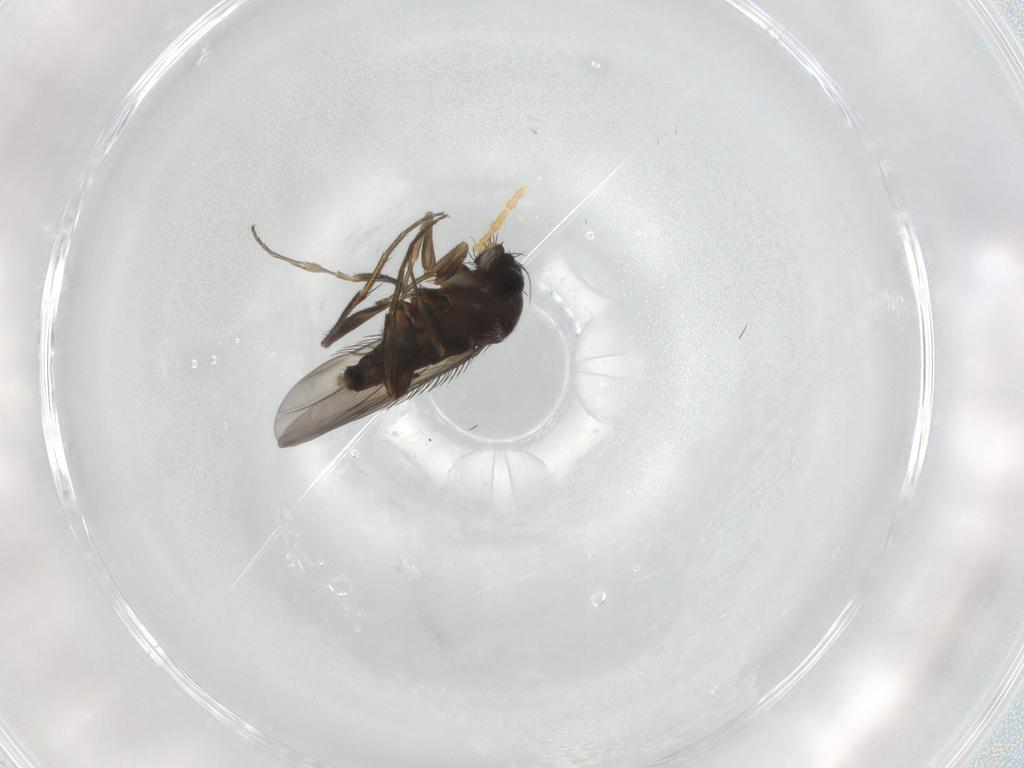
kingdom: Animalia
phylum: Arthropoda
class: Insecta
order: Diptera
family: Phoridae
